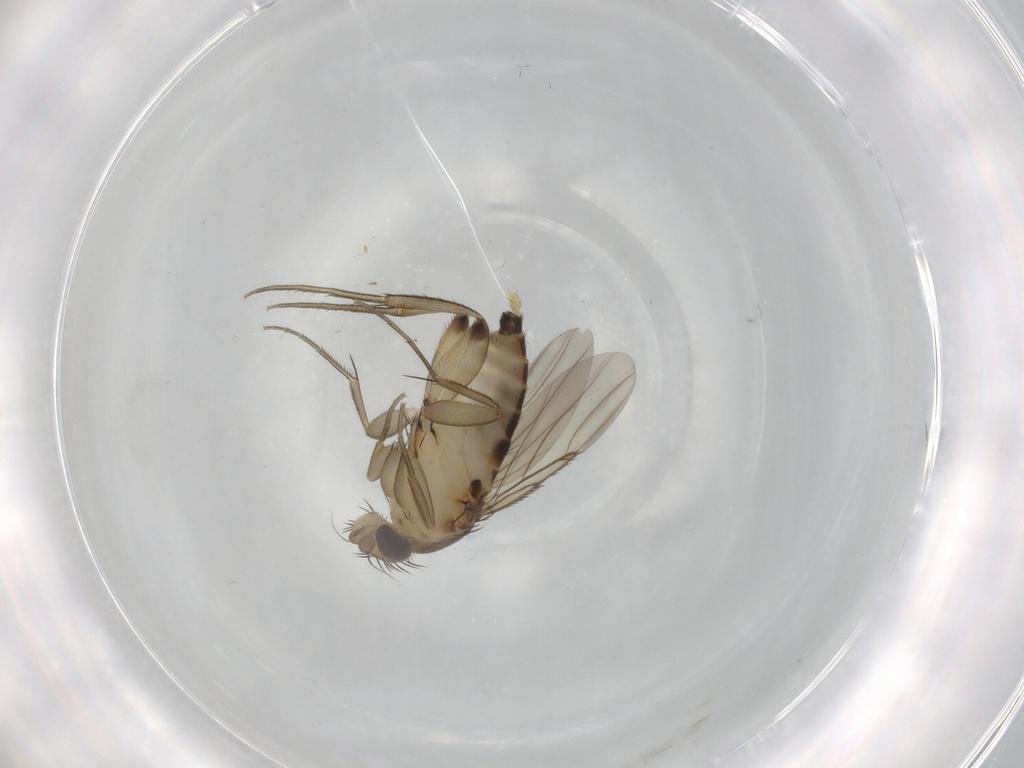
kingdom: Animalia
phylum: Arthropoda
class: Insecta
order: Diptera
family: Phoridae
